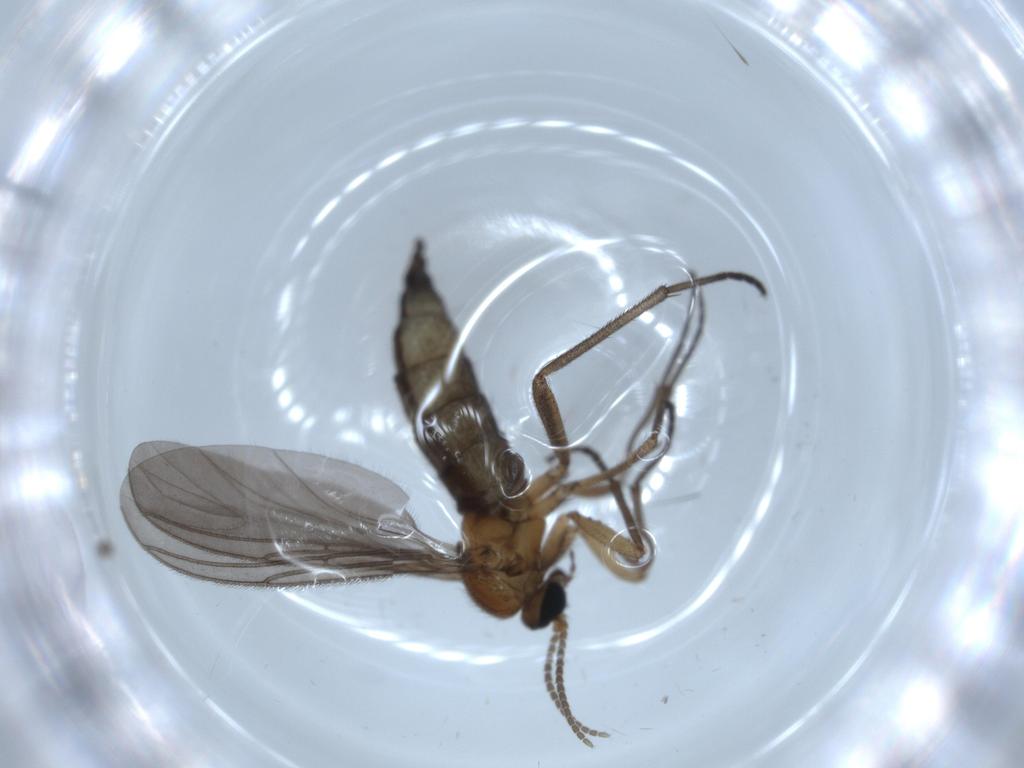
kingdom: Animalia
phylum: Arthropoda
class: Insecta
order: Diptera
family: Sciaridae
